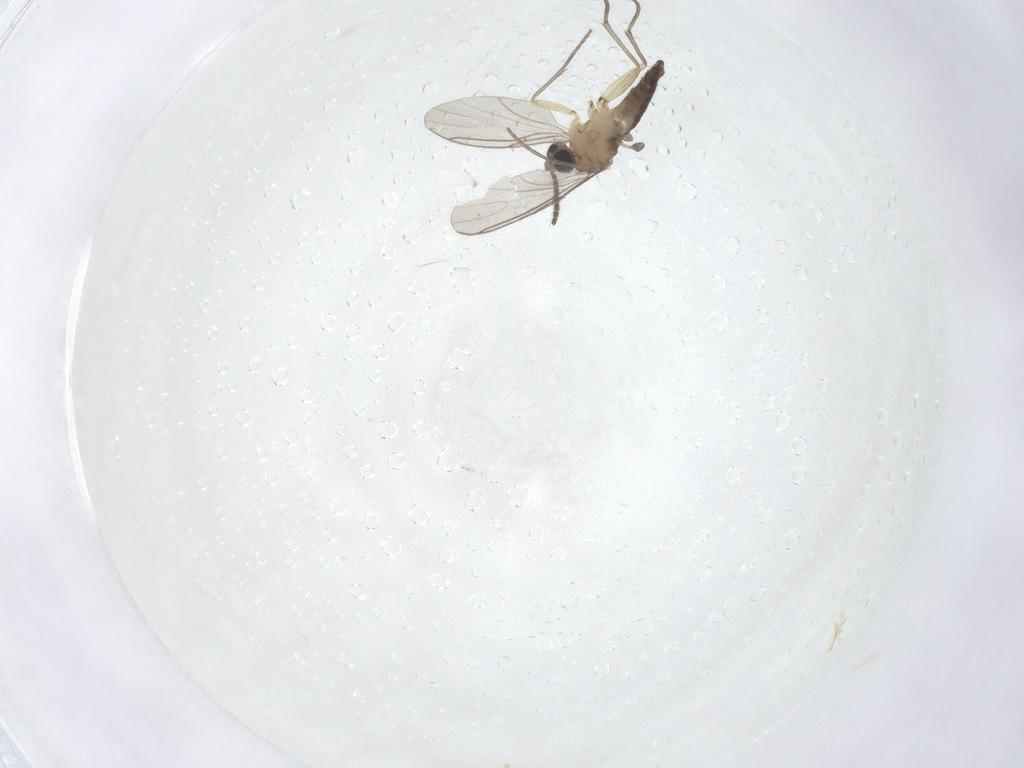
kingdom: Animalia
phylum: Arthropoda
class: Insecta
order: Diptera
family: Sciaridae
